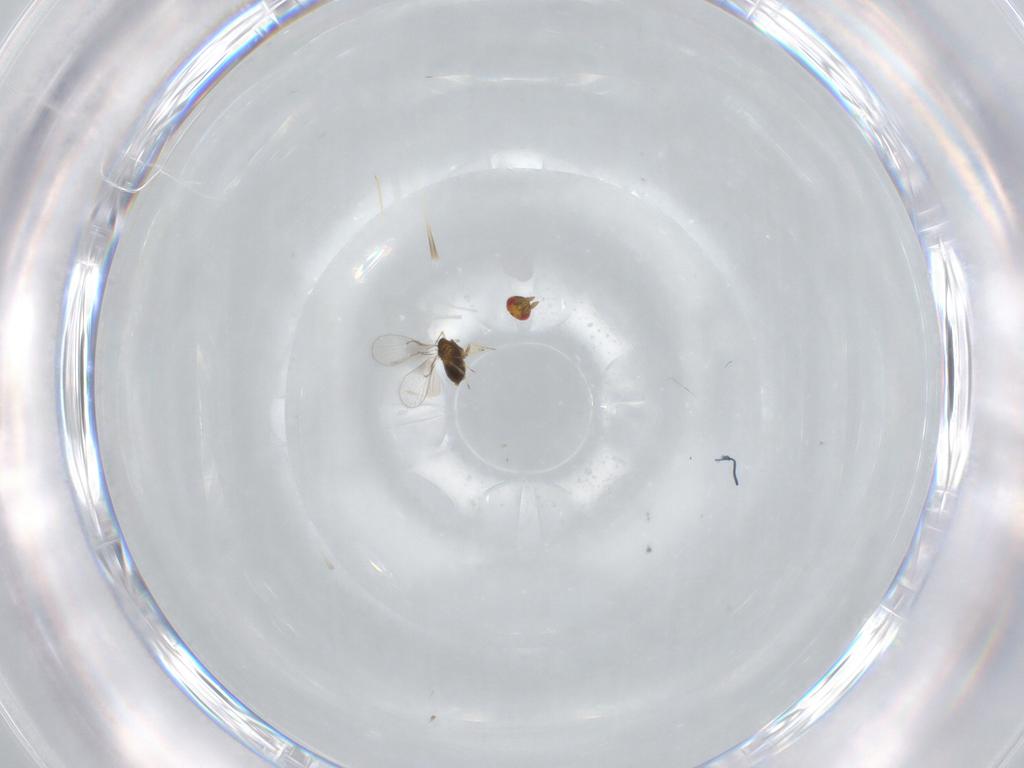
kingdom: Animalia
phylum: Arthropoda
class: Insecta
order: Hymenoptera
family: Trichogrammatidae
